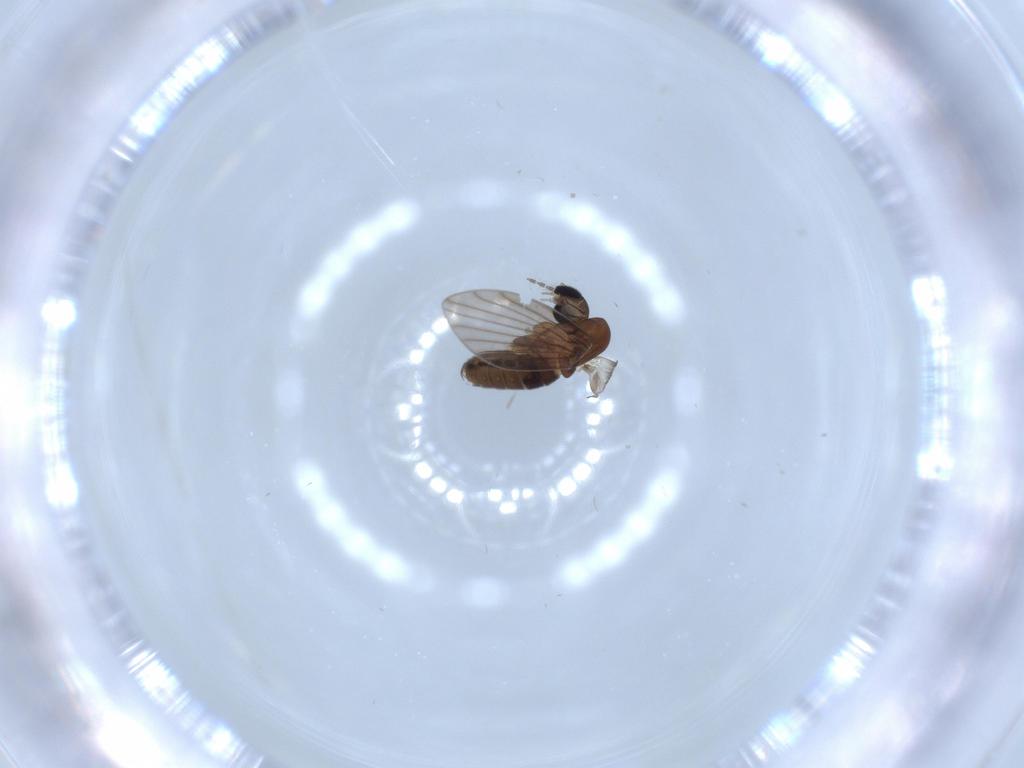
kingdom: Animalia
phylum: Arthropoda
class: Insecta
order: Diptera
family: Psychodidae
